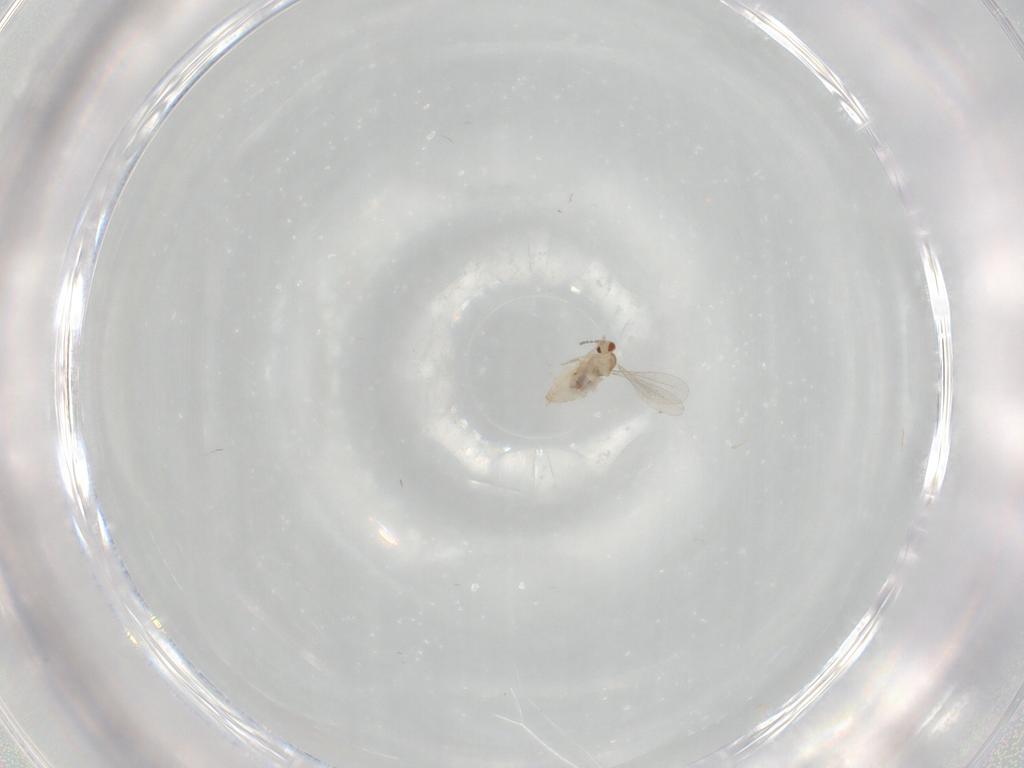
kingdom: Animalia
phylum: Arthropoda
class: Insecta
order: Diptera
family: Cecidomyiidae
